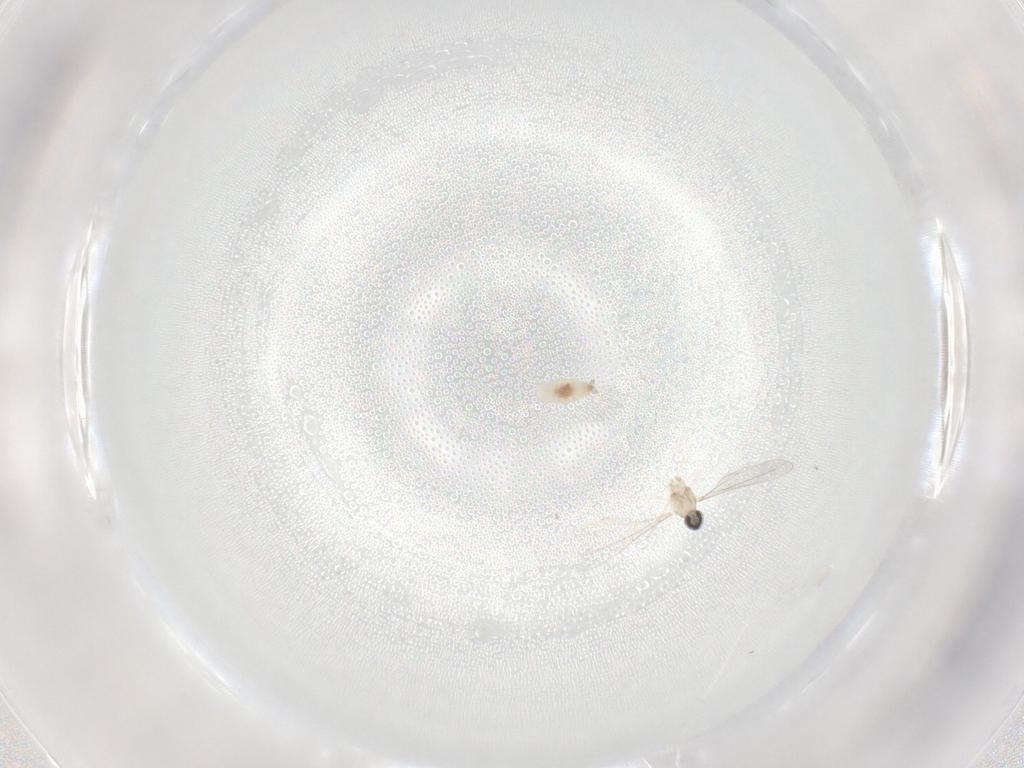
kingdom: Animalia
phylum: Arthropoda
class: Insecta
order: Diptera
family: Cecidomyiidae
